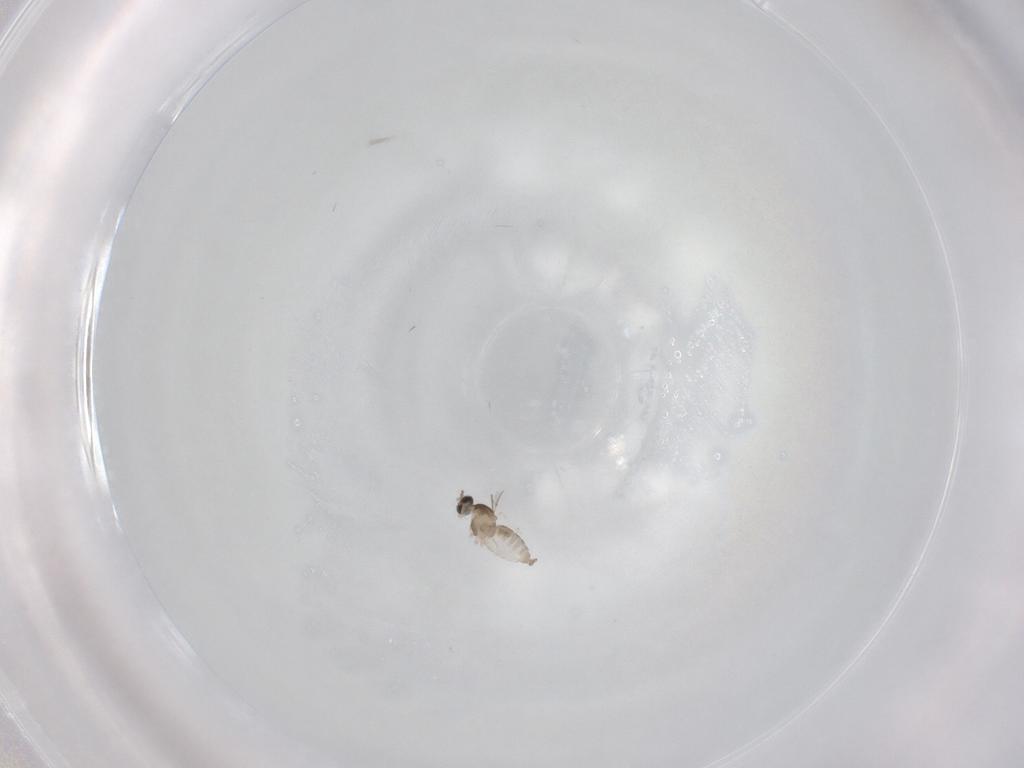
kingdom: Animalia
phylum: Arthropoda
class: Insecta
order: Diptera
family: Cecidomyiidae
